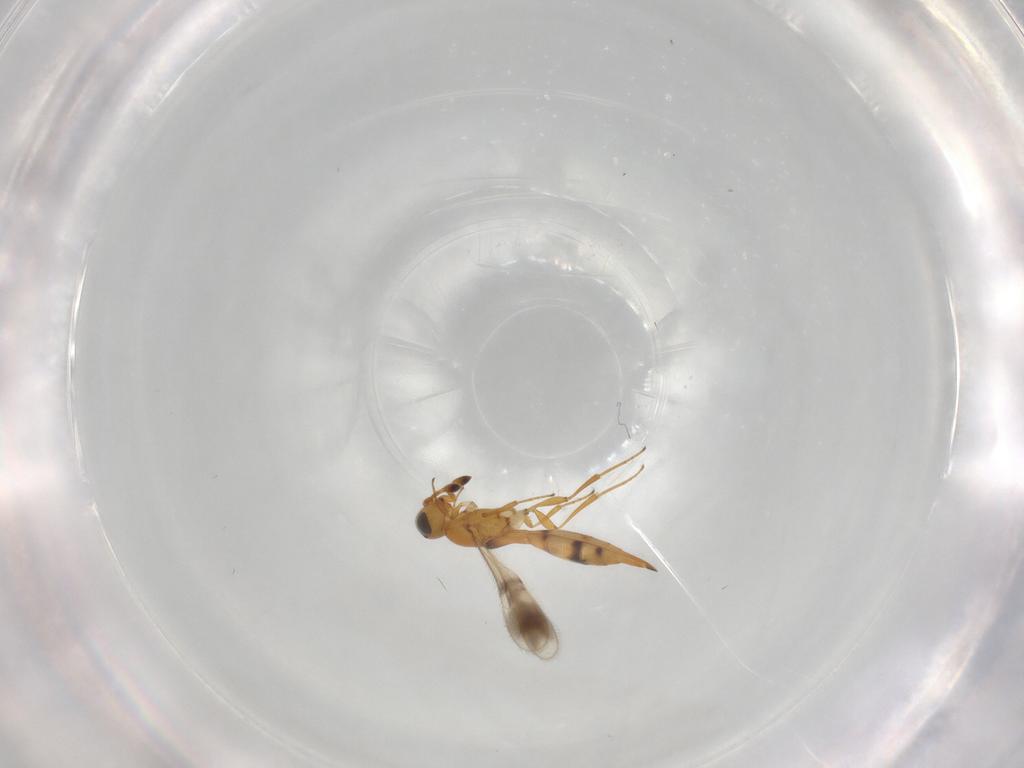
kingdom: Animalia
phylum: Arthropoda
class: Insecta
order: Hymenoptera
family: Scelionidae
